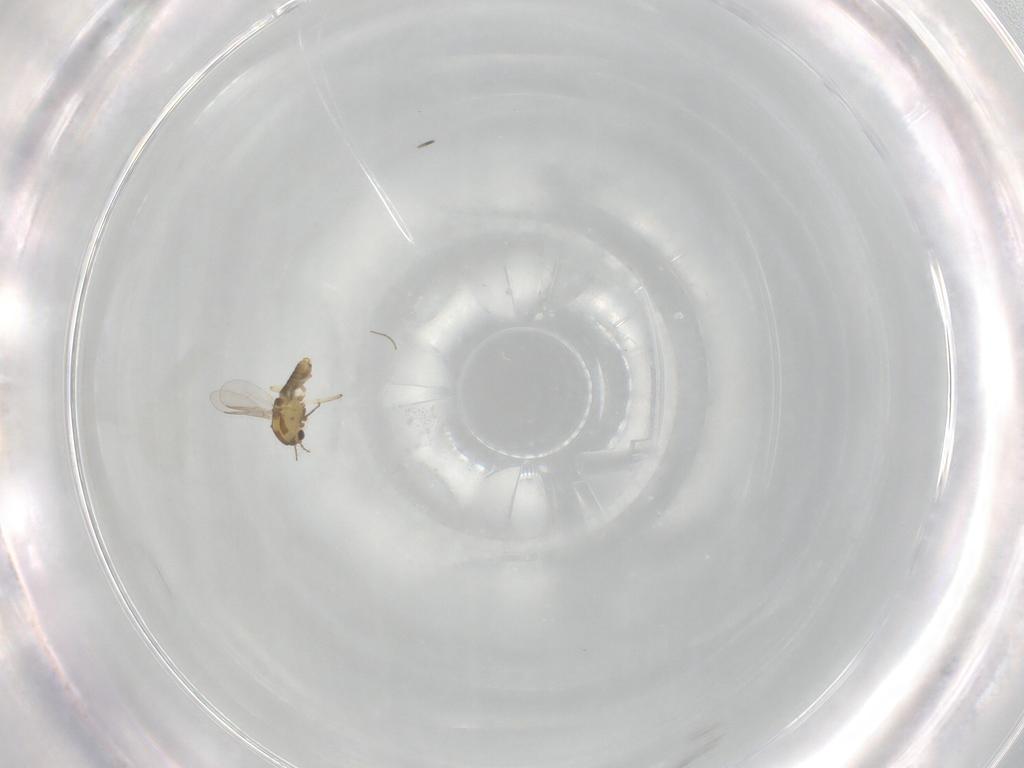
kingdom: Animalia
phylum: Arthropoda
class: Insecta
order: Diptera
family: Chironomidae
